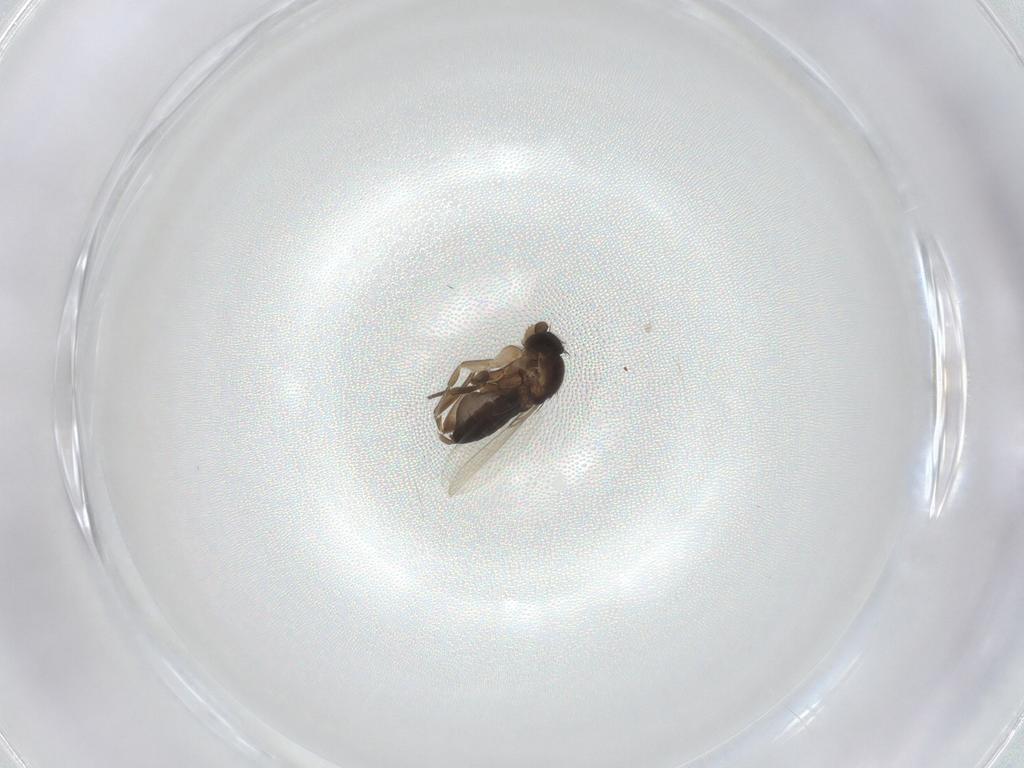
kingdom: Animalia
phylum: Arthropoda
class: Insecta
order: Diptera
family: Phoridae
